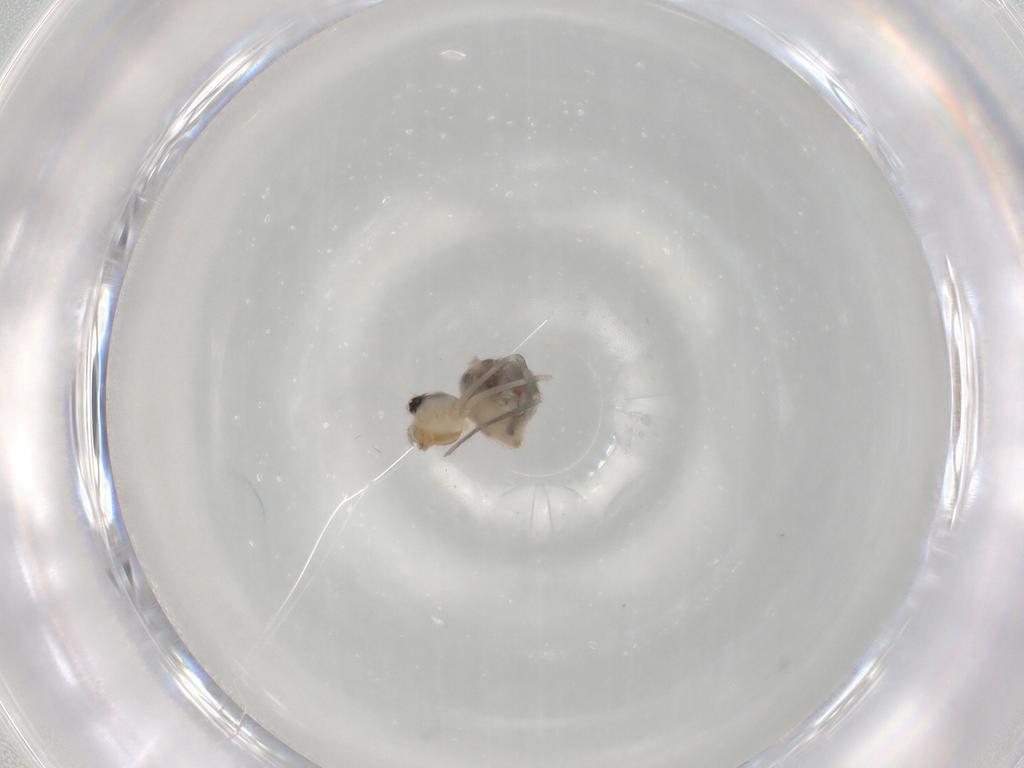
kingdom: Animalia
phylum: Arthropoda
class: Arachnida
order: Araneae
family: Pholcidae
